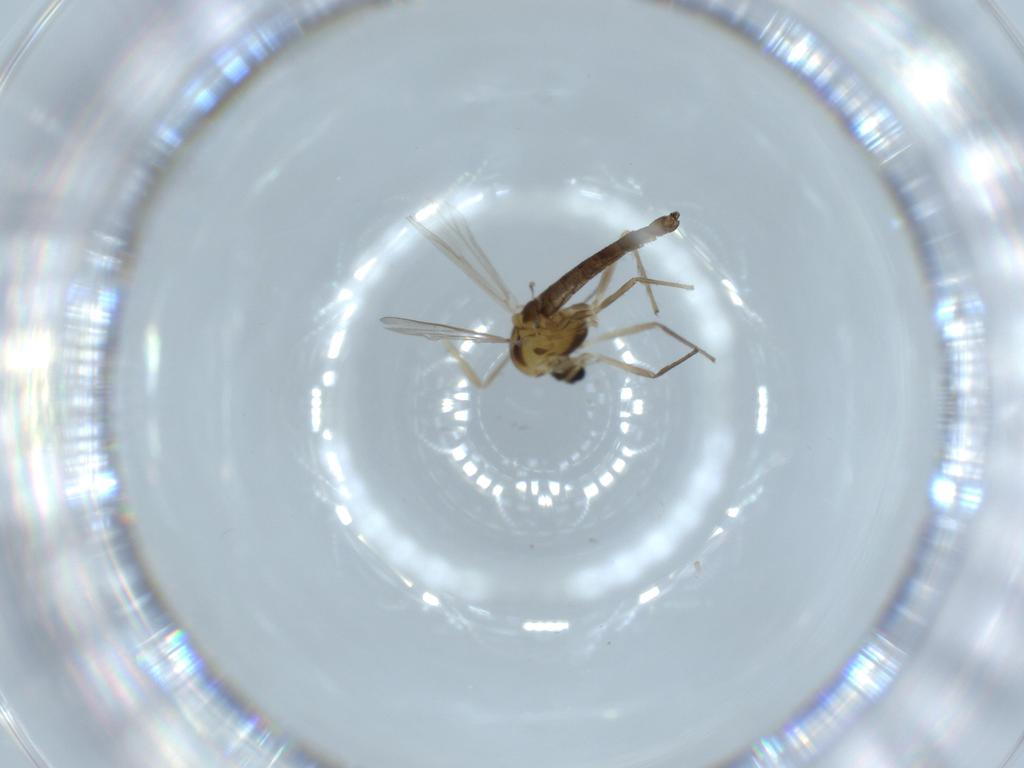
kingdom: Animalia
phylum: Arthropoda
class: Insecta
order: Diptera
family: Chironomidae
